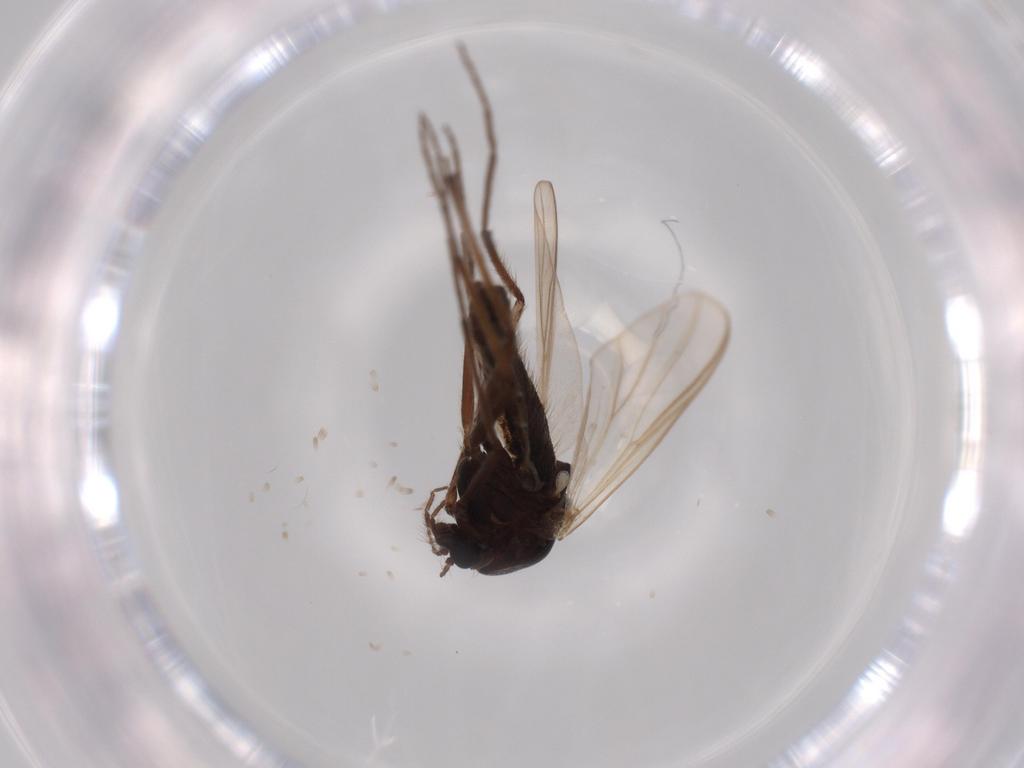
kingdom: Animalia
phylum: Arthropoda
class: Insecta
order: Diptera
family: Cecidomyiidae
